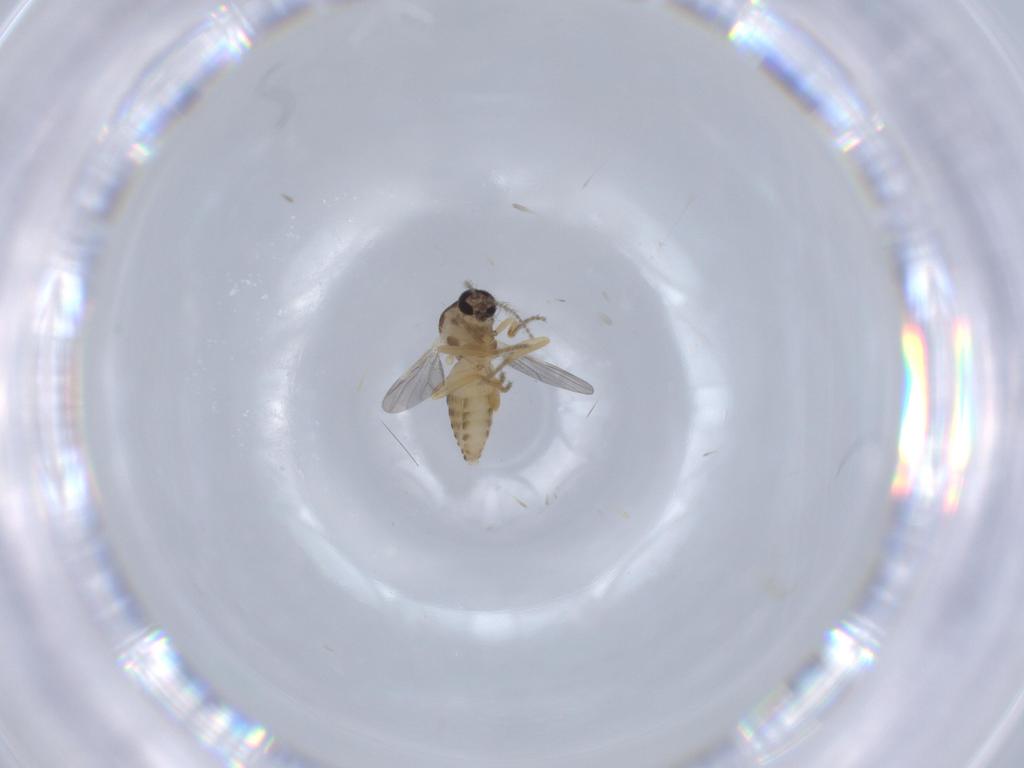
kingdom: Animalia
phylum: Arthropoda
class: Insecta
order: Diptera
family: Ceratopogonidae
